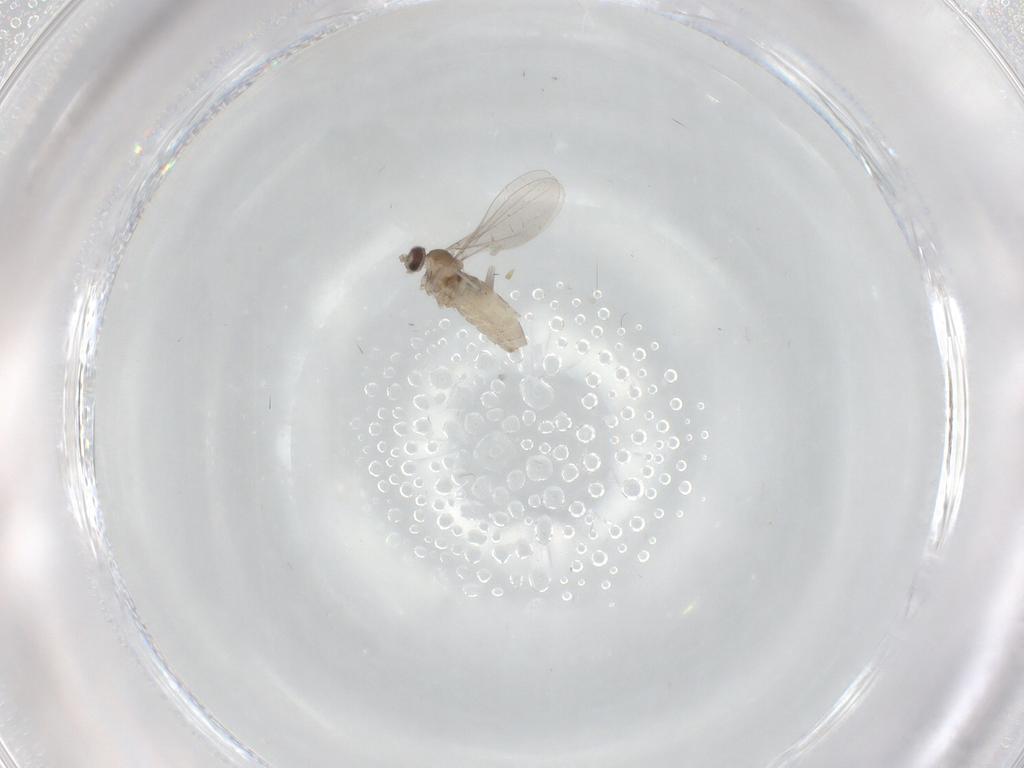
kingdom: Animalia
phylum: Arthropoda
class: Insecta
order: Diptera
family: Cecidomyiidae
